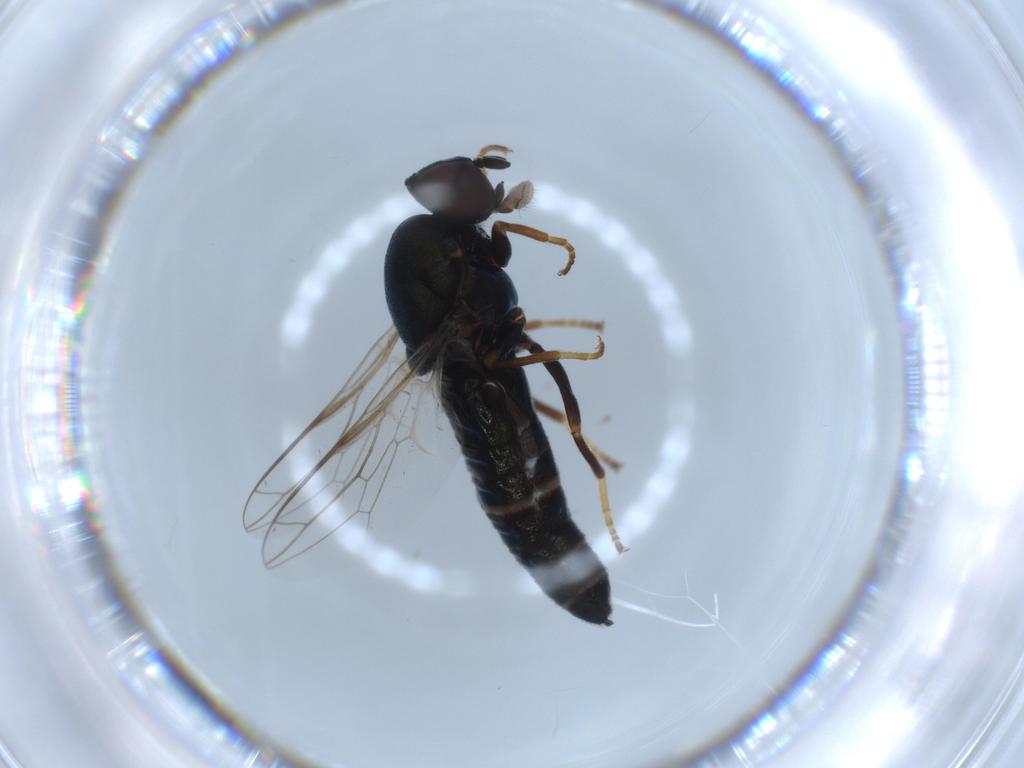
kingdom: Animalia
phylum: Arthropoda
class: Insecta
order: Diptera
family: Scenopinidae
